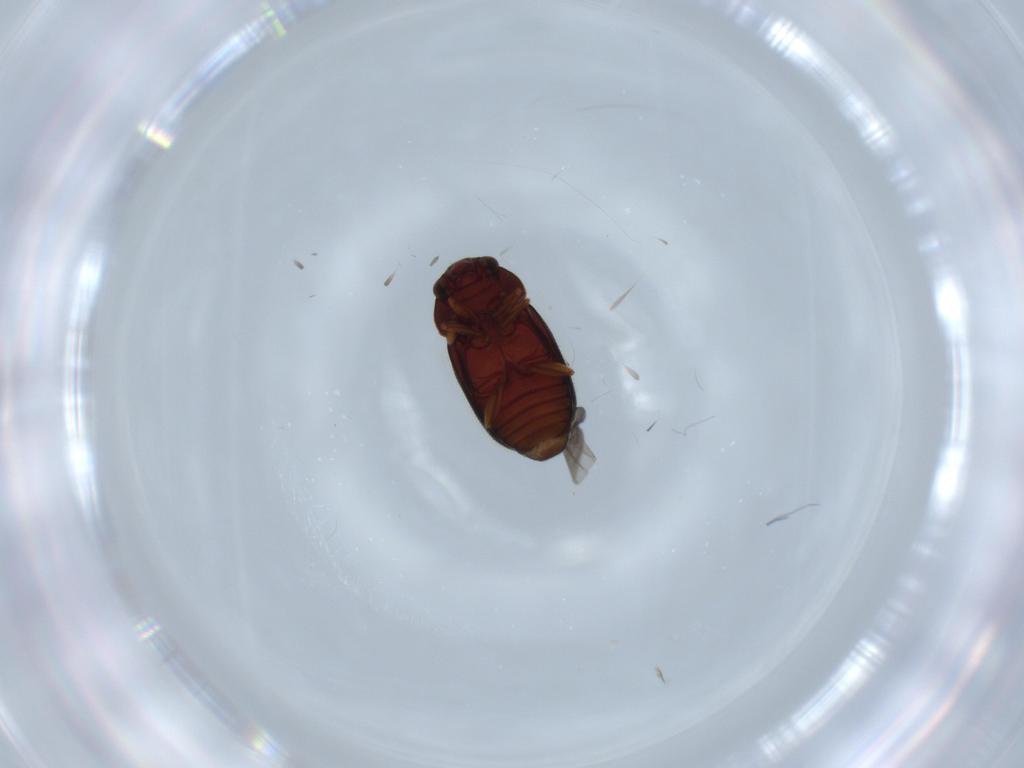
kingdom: Animalia
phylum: Arthropoda
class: Insecta
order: Coleoptera
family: Sphindidae
